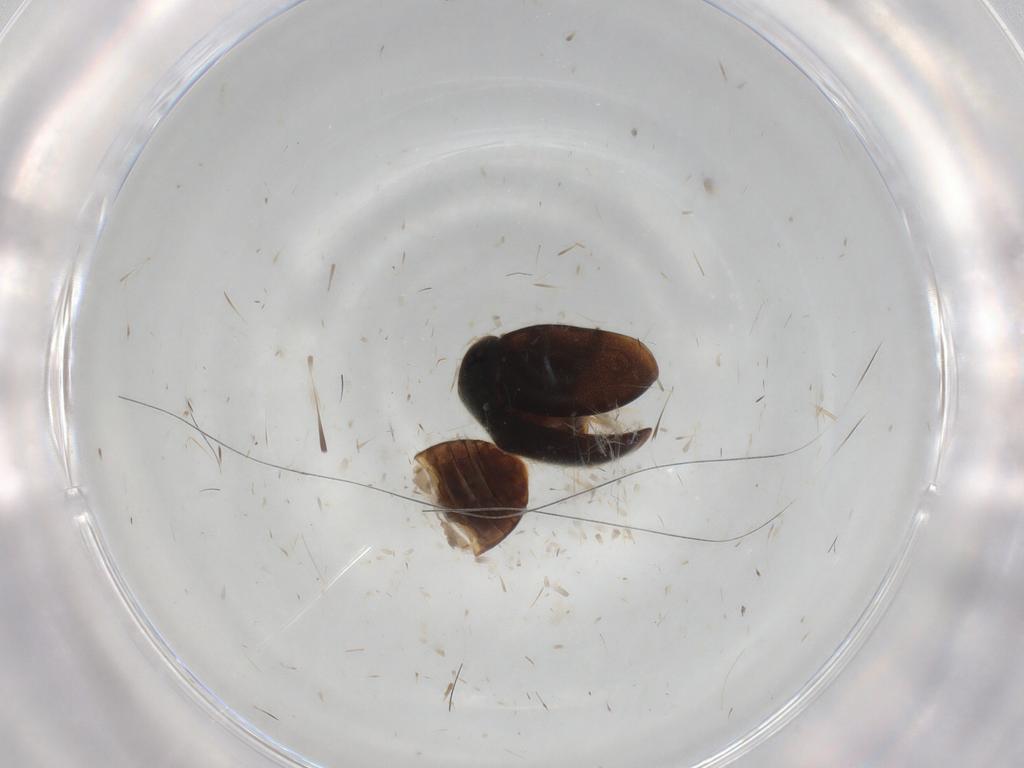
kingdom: Animalia
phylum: Arthropoda
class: Insecta
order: Coleoptera
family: Coccinellidae
